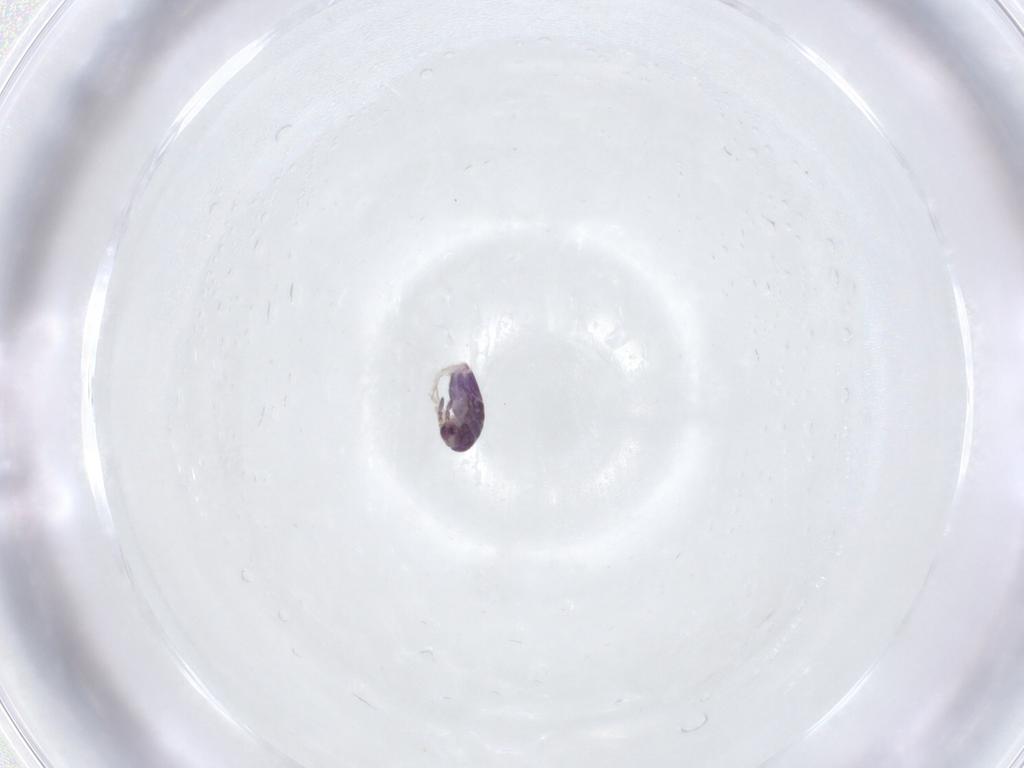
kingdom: Animalia
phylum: Arthropoda
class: Collembola
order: Entomobryomorpha
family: Entomobryidae
